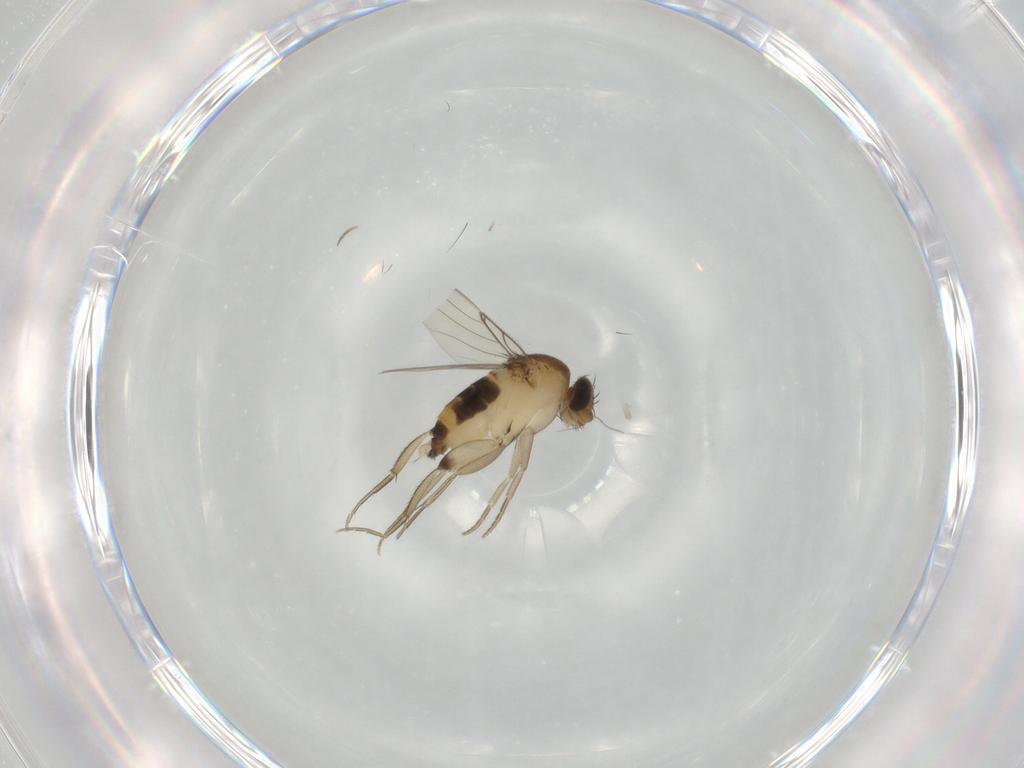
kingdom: Animalia
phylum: Arthropoda
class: Insecta
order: Diptera
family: Phoridae
